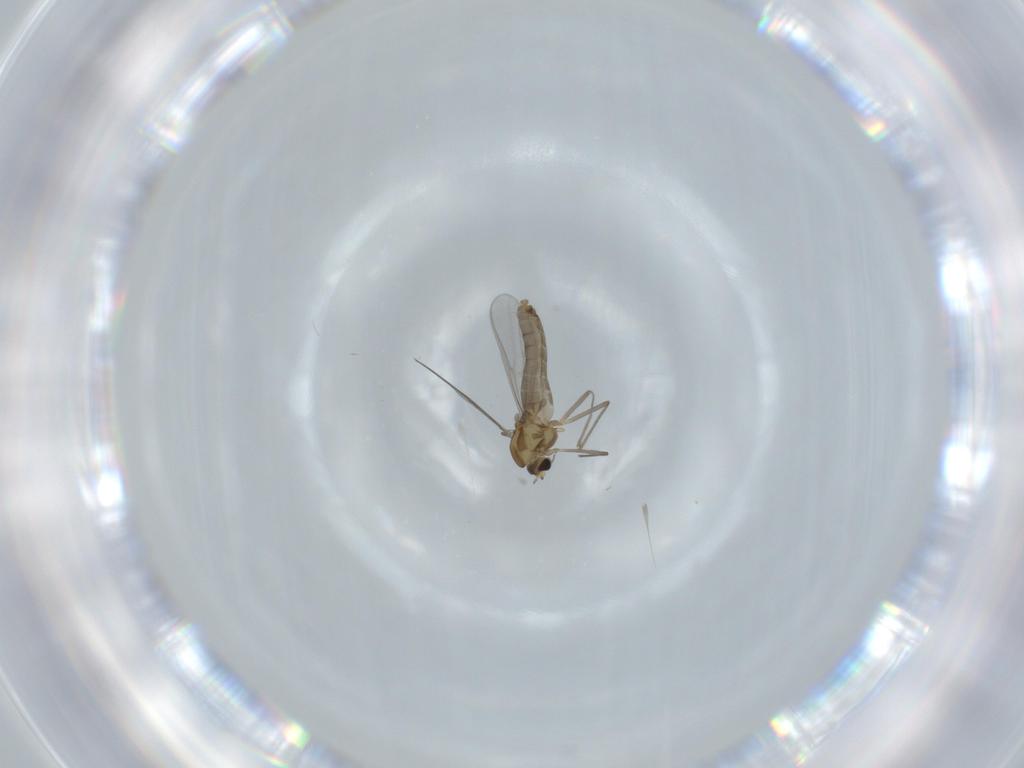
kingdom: Animalia
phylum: Arthropoda
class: Insecta
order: Diptera
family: Chironomidae
